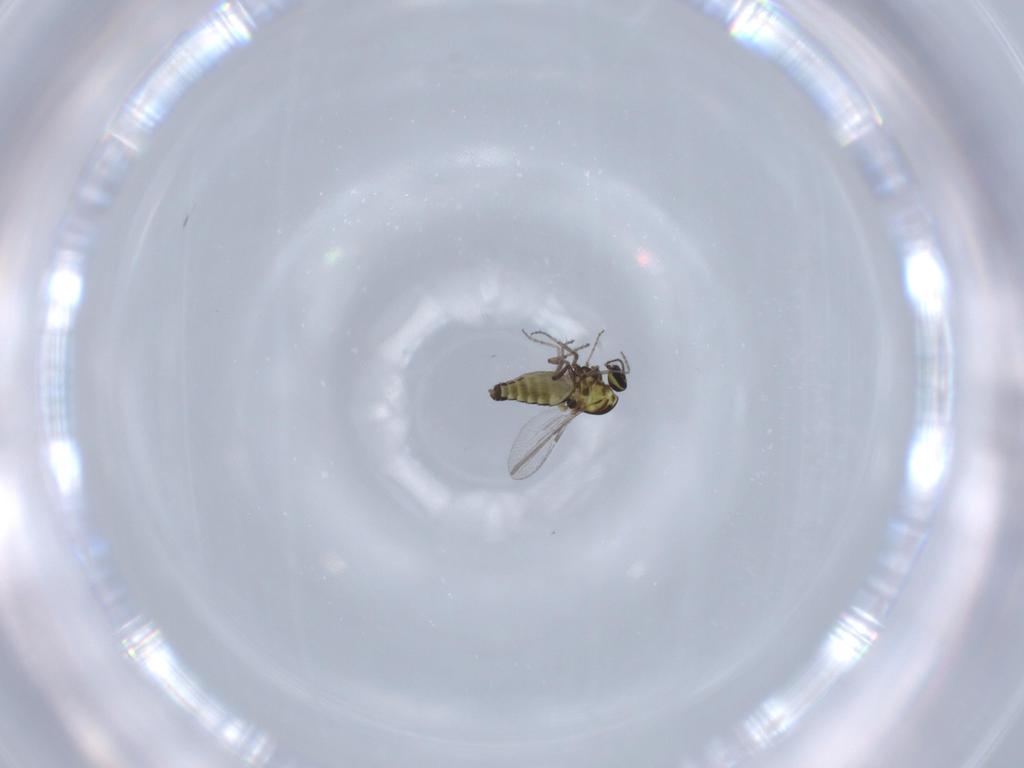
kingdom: Animalia
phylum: Arthropoda
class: Insecta
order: Diptera
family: Ceratopogonidae
